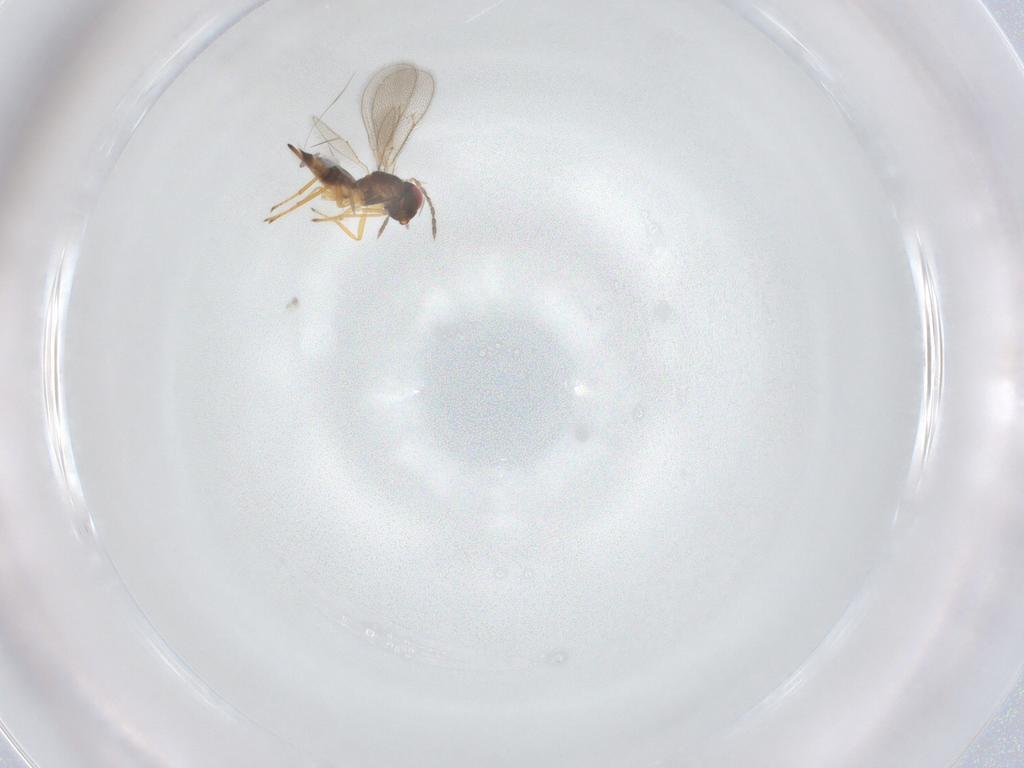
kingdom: Animalia
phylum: Arthropoda
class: Insecta
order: Hymenoptera
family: Eulophidae
